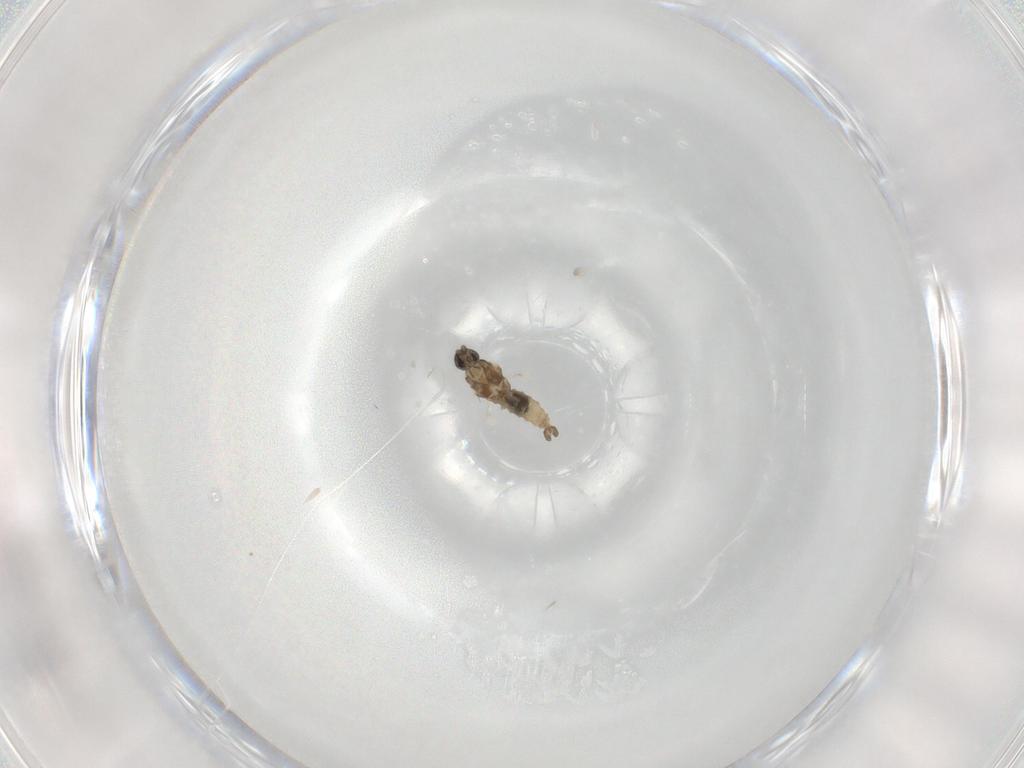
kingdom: Animalia
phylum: Arthropoda
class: Insecta
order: Diptera
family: Cecidomyiidae
